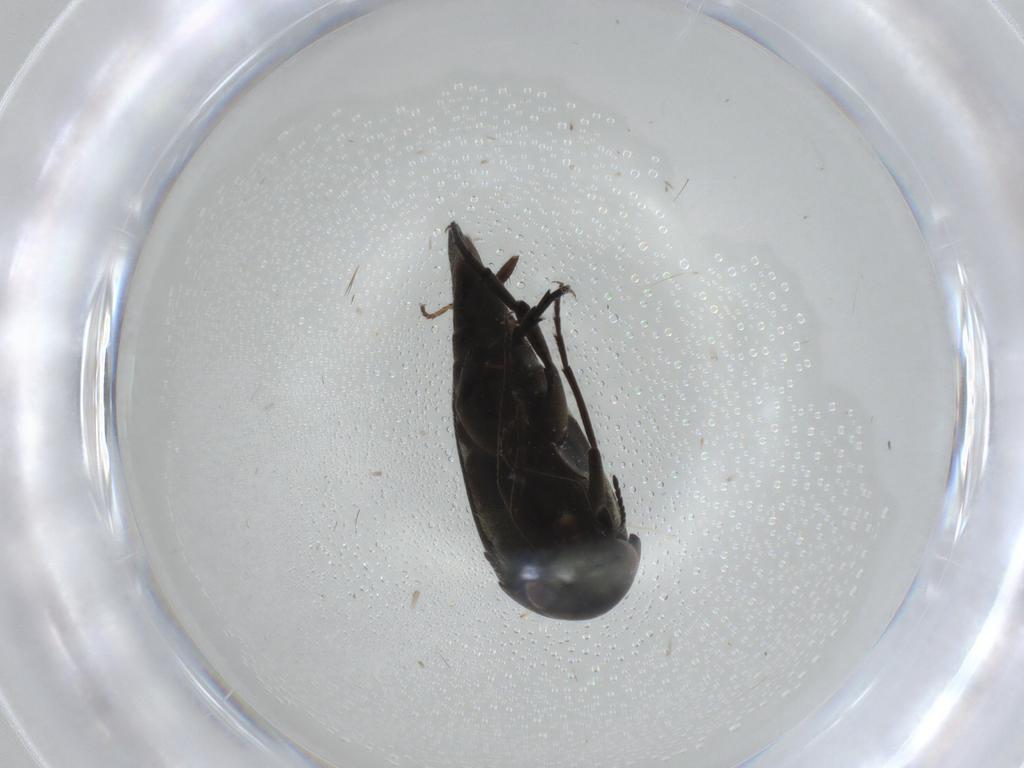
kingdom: Animalia
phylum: Arthropoda
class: Insecta
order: Coleoptera
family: Mordellidae
